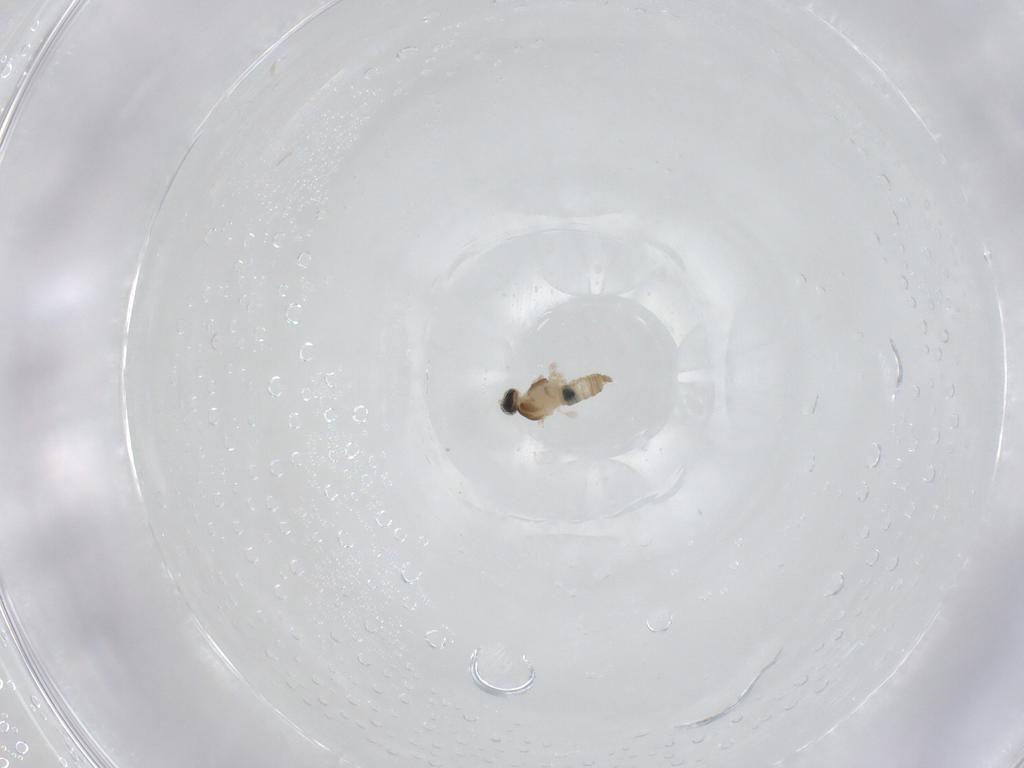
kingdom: Animalia
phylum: Arthropoda
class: Insecta
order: Diptera
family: Cecidomyiidae
